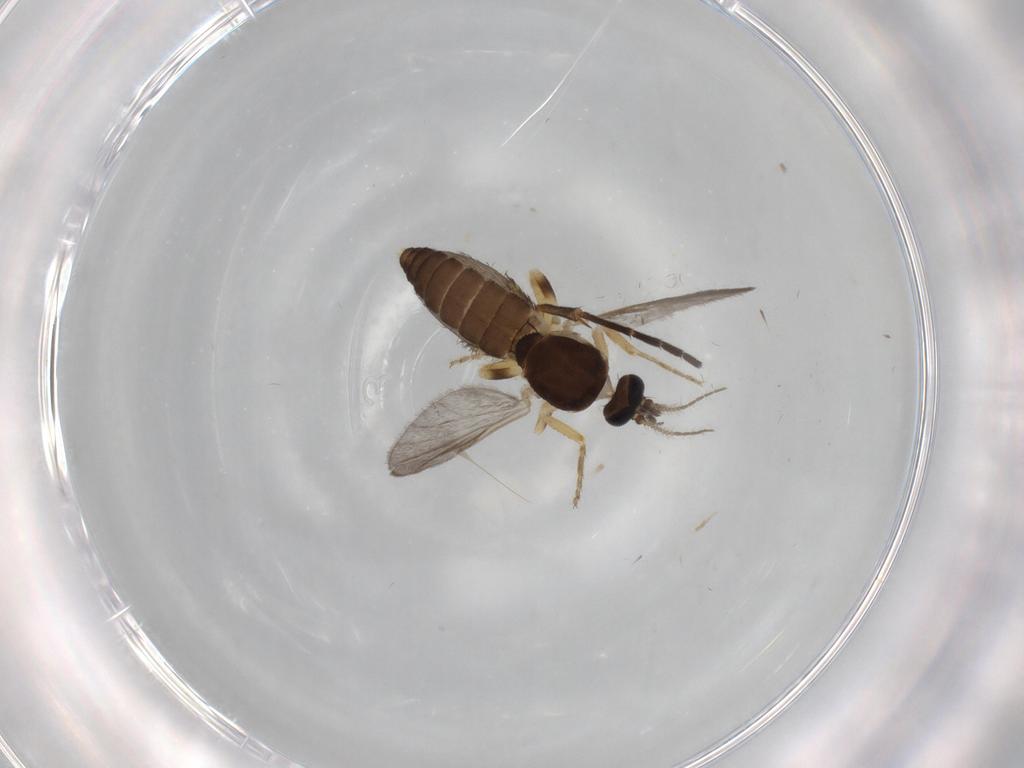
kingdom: Animalia
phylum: Arthropoda
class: Insecta
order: Diptera
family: Ceratopogonidae
